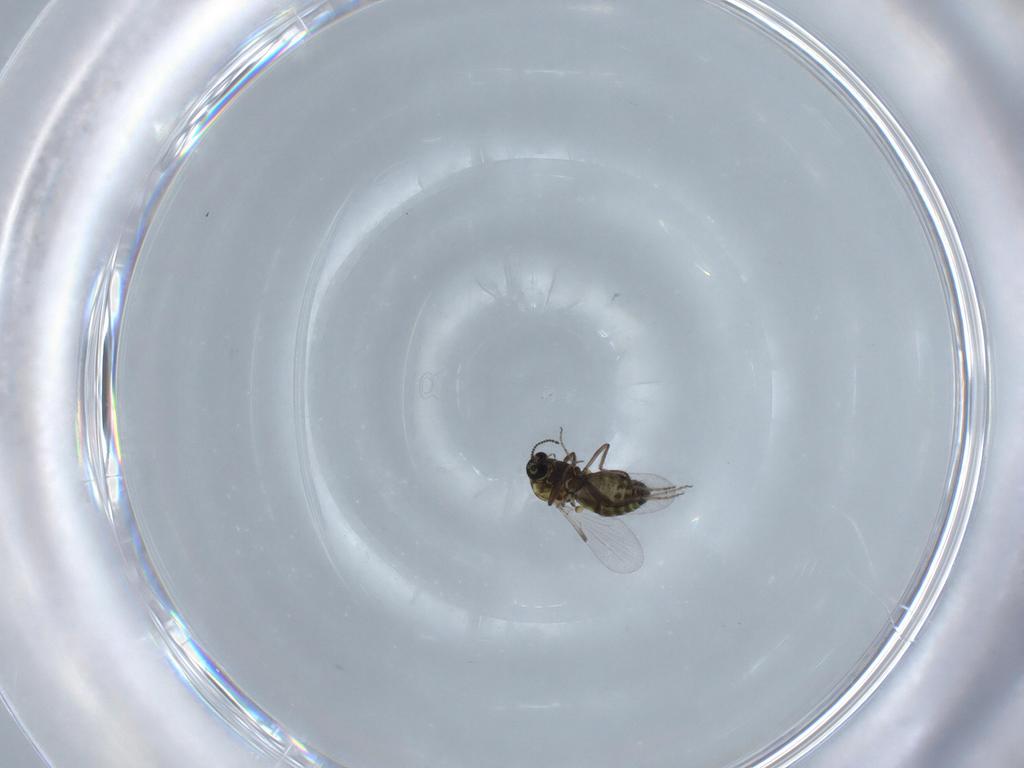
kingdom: Animalia
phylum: Arthropoda
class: Insecta
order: Diptera
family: Ceratopogonidae
